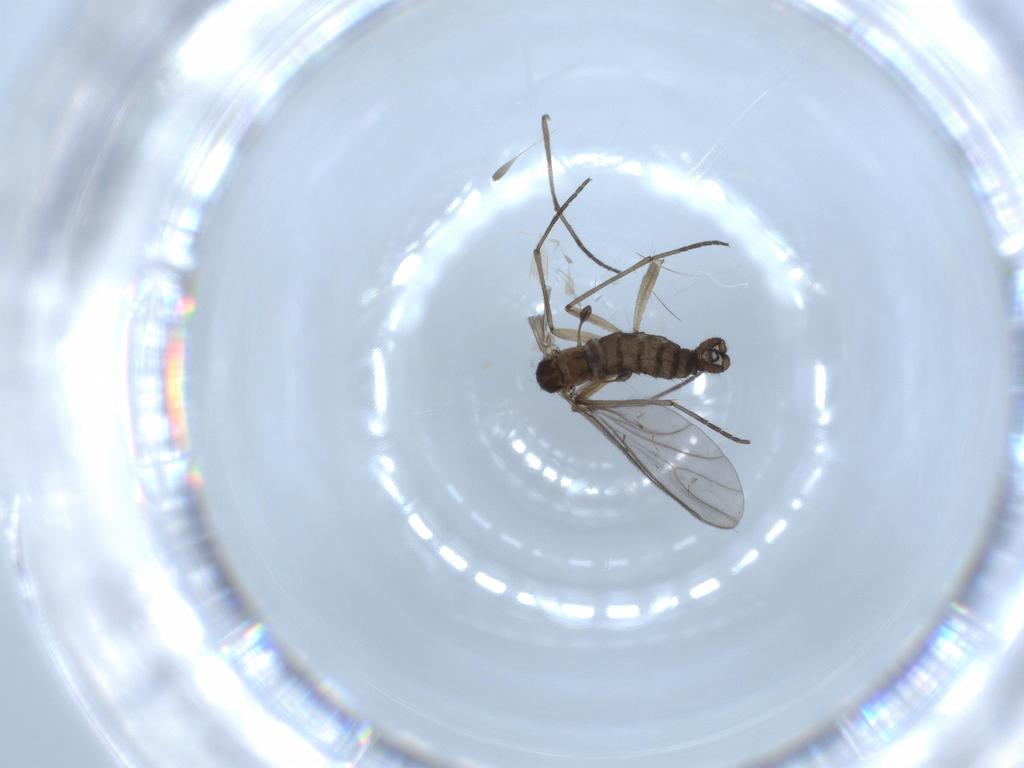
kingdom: Animalia
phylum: Arthropoda
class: Insecta
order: Diptera
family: Sciaridae
